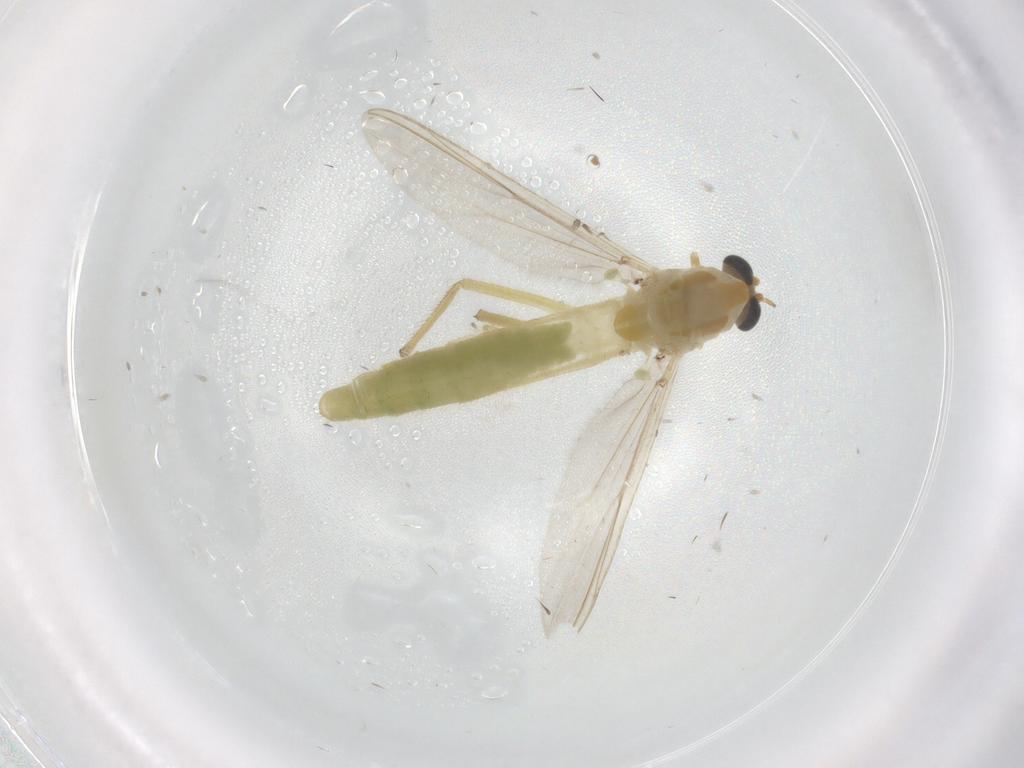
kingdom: Animalia
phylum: Arthropoda
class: Insecta
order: Diptera
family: Chironomidae
